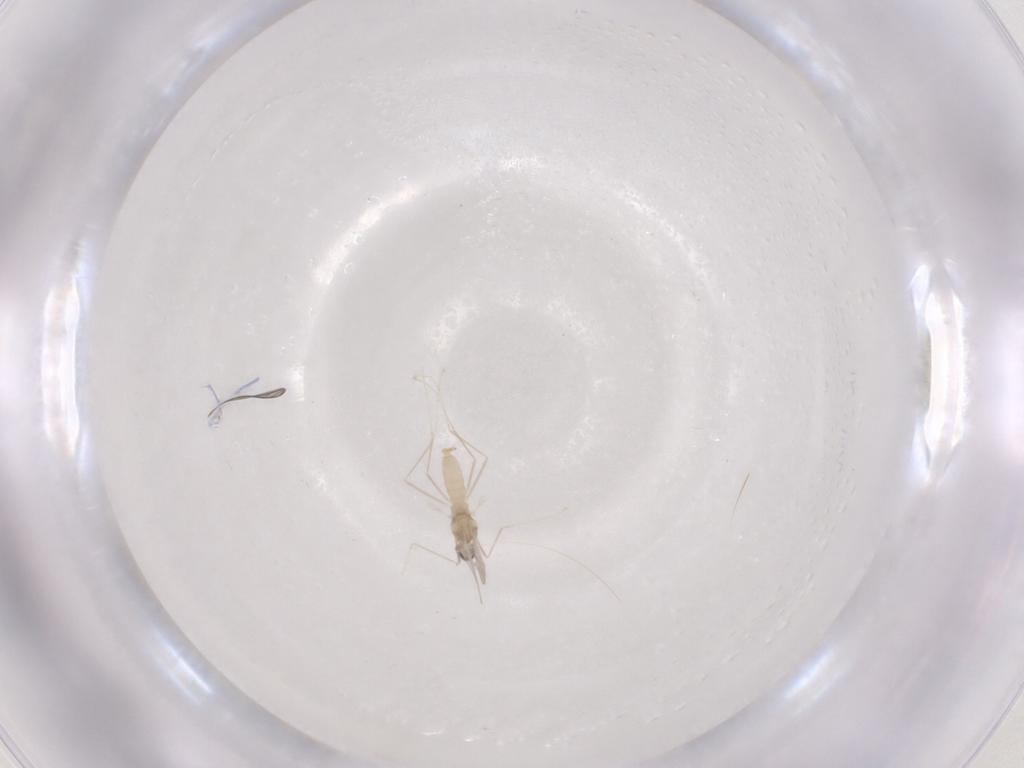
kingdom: Animalia
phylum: Arthropoda
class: Insecta
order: Diptera
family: Cecidomyiidae
